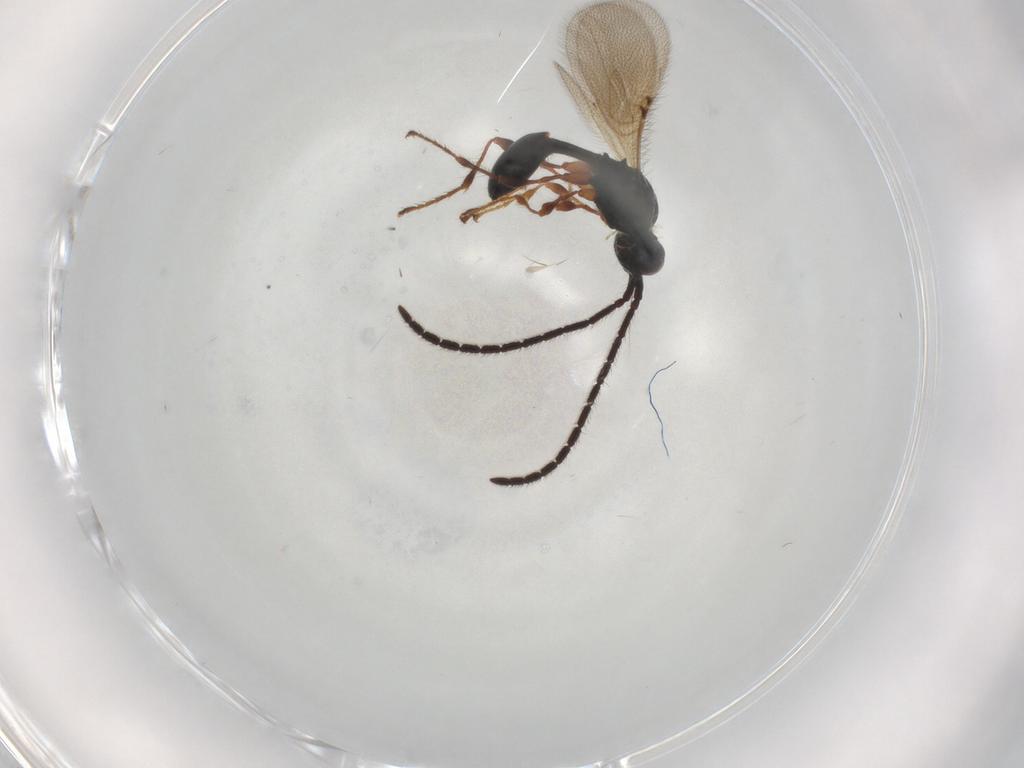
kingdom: Animalia
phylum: Arthropoda
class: Insecta
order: Hymenoptera
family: Diapriidae
